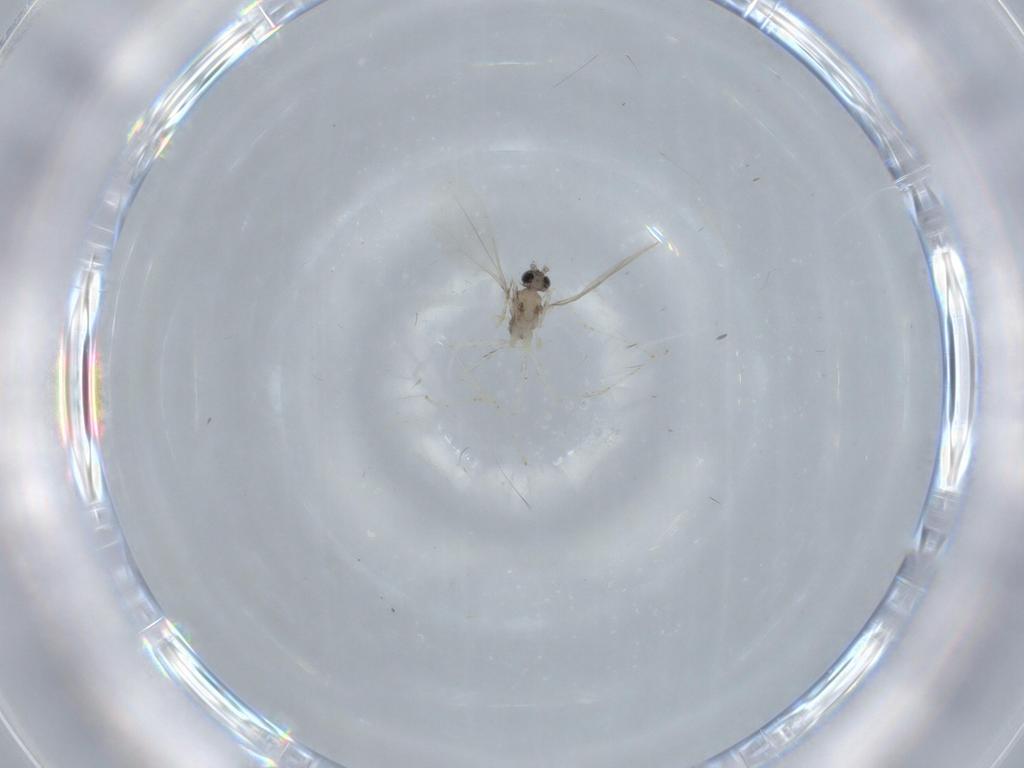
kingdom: Animalia
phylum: Arthropoda
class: Insecta
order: Diptera
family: Cecidomyiidae
